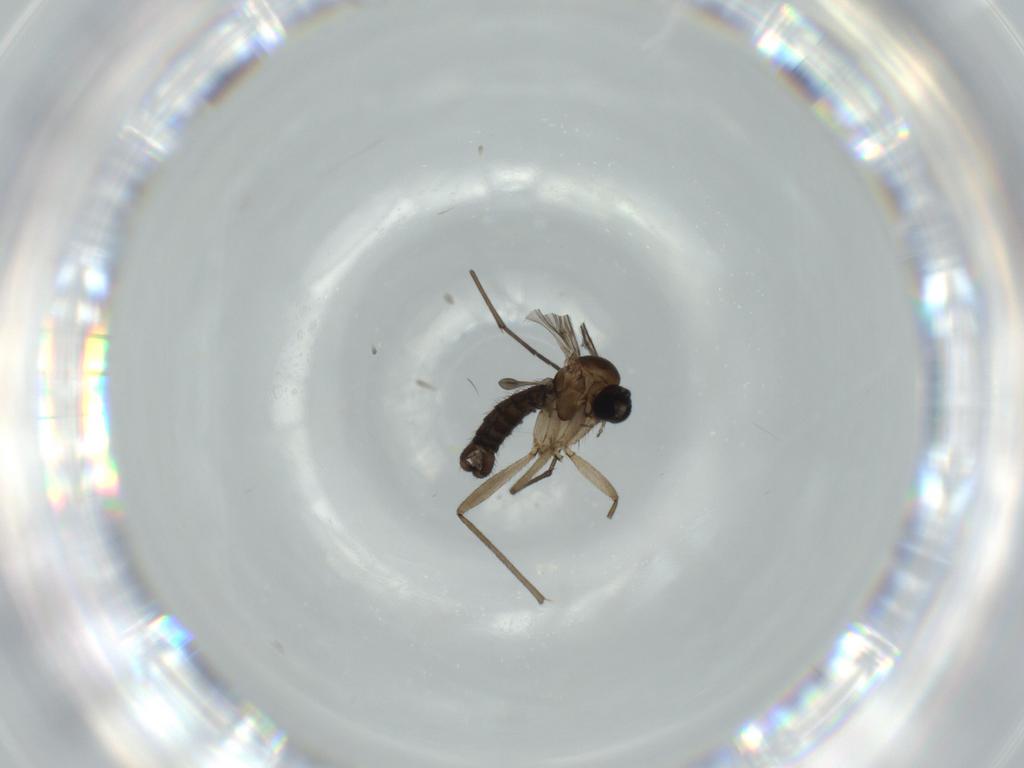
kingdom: Animalia
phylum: Arthropoda
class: Insecta
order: Diptera
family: Sciaridae
